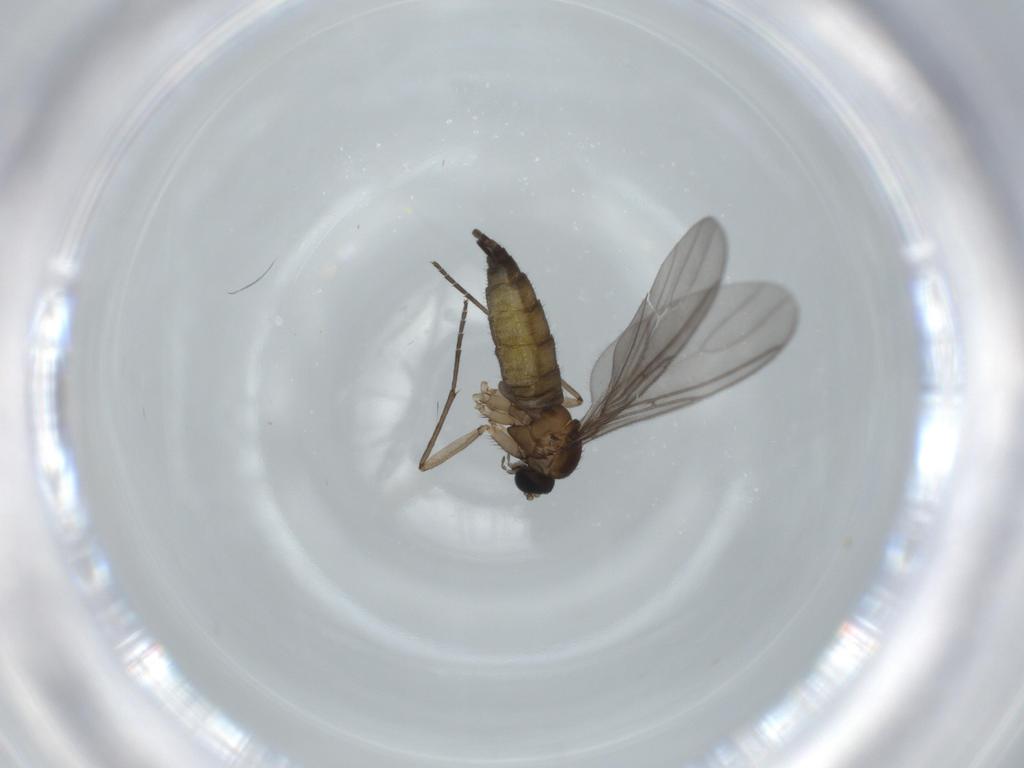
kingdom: Animalia
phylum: Arthropoda
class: Insecta
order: Diptera
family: Sciaridae
